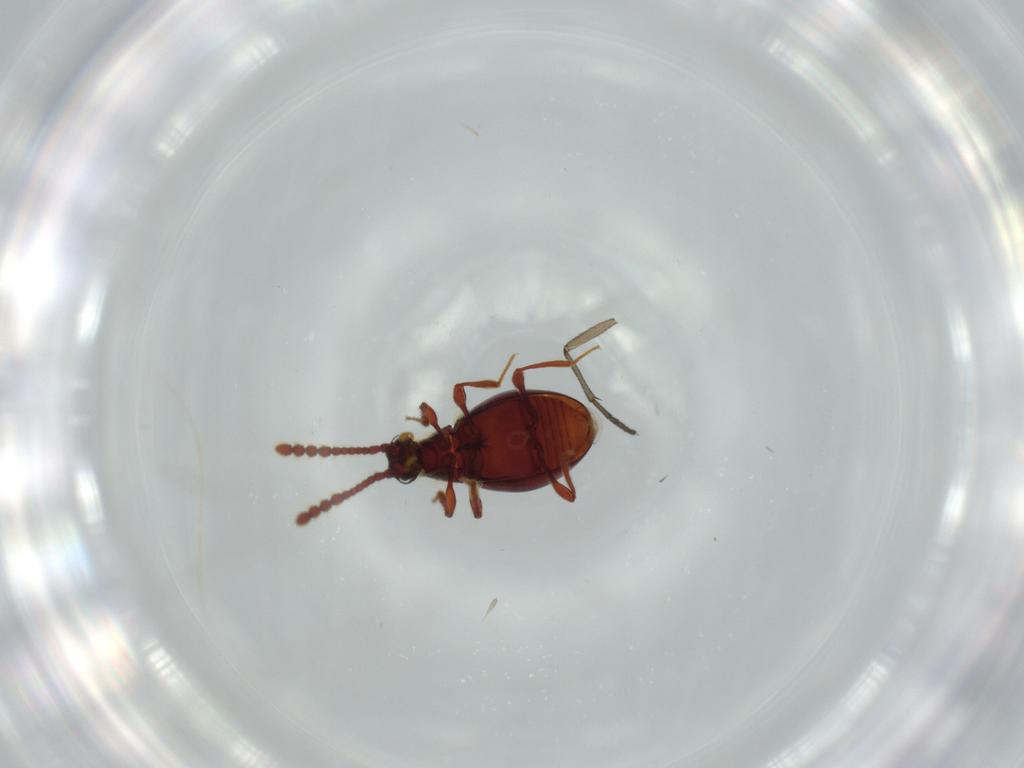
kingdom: Animalia
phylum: Arthropoda
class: Insecta
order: Coleoptera
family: Staphylinidae
